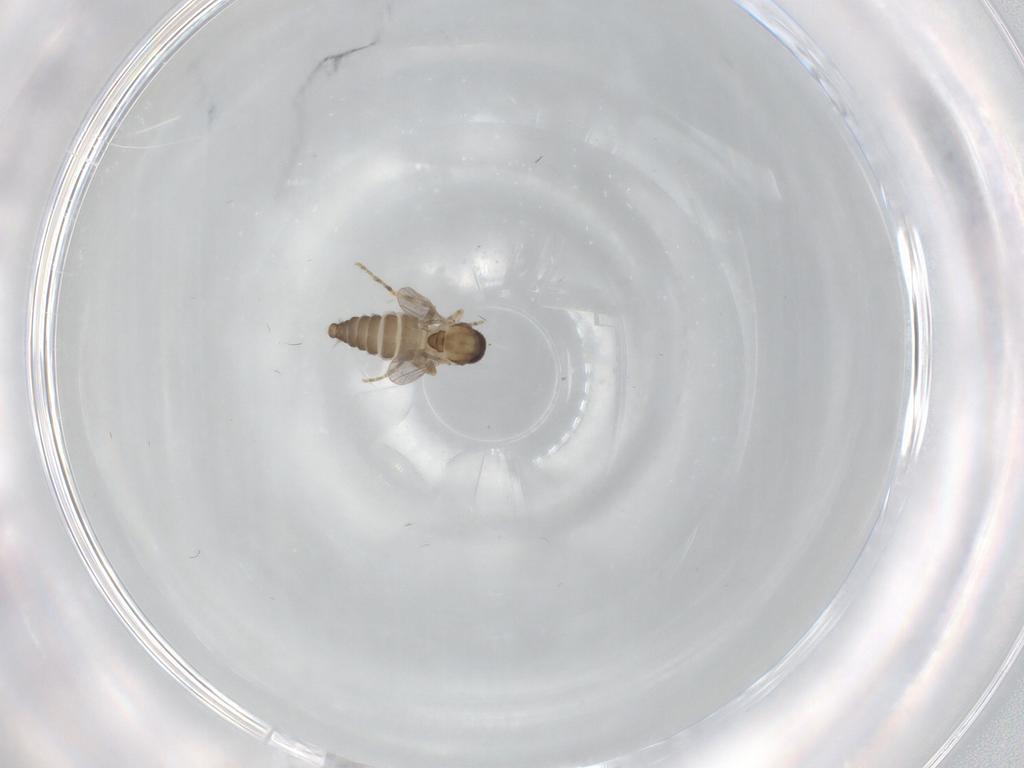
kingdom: Animalia
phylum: Arthropoda
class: Insecta
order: Diptera
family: Ceratopogonidae
